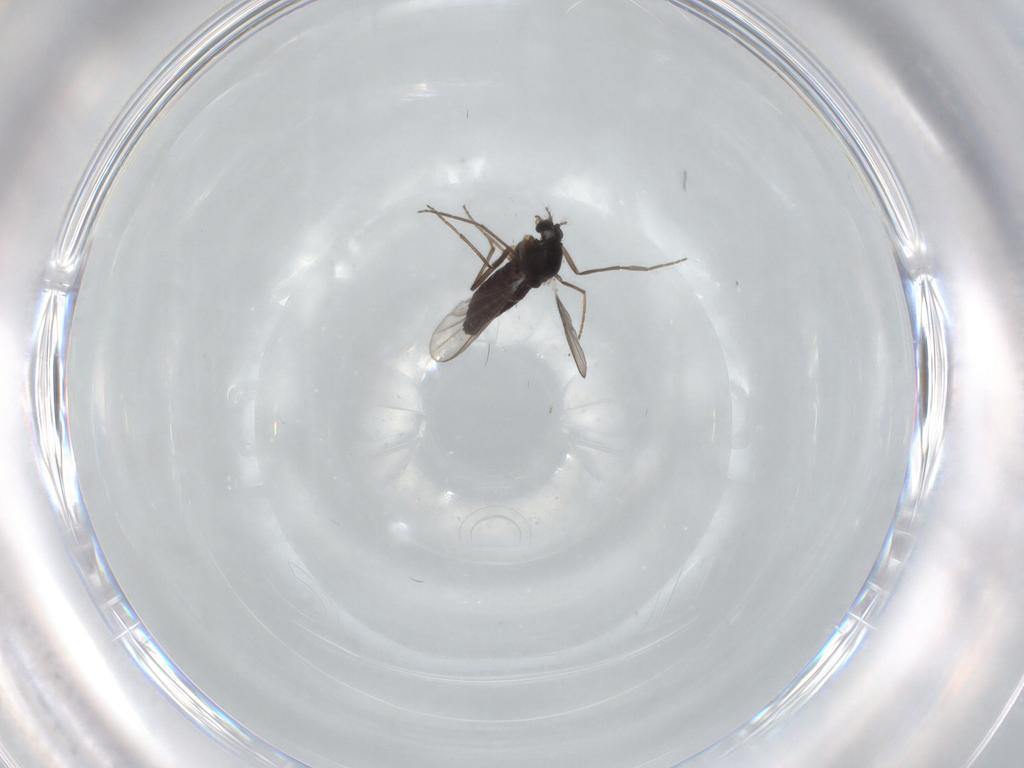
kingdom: Animalia
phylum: Arthropoda
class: Insecta
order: Diptera
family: Chironomidae
